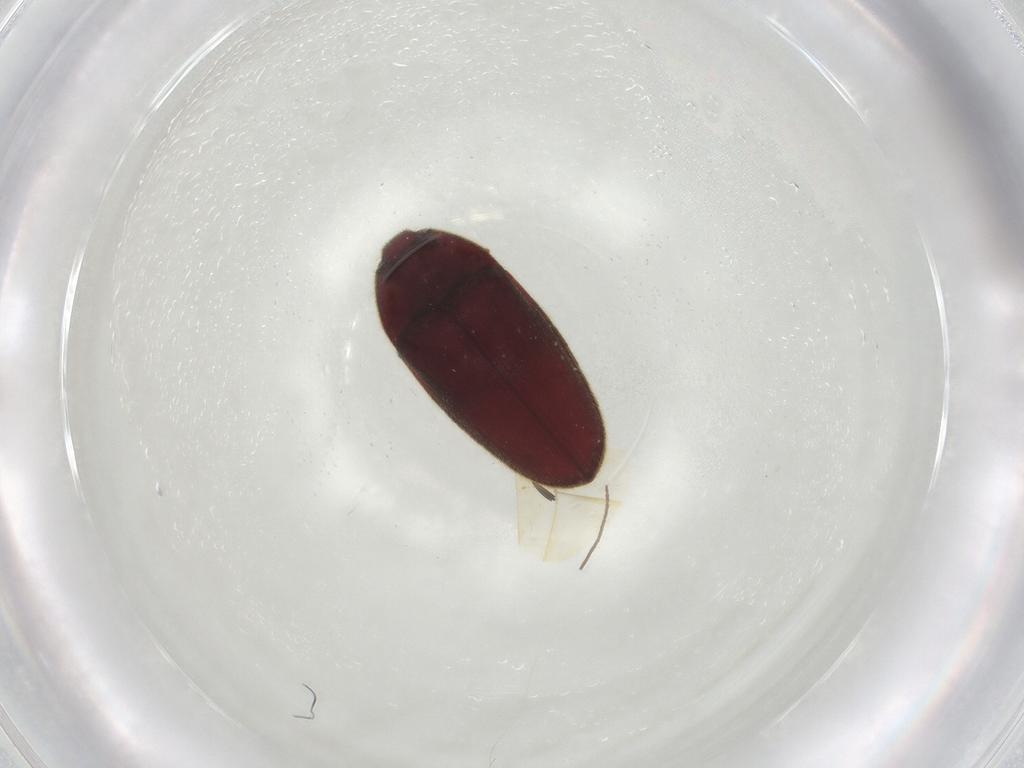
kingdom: Animalia
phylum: Arthropoda
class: Insecta
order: Coleoptera
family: Throscidae
